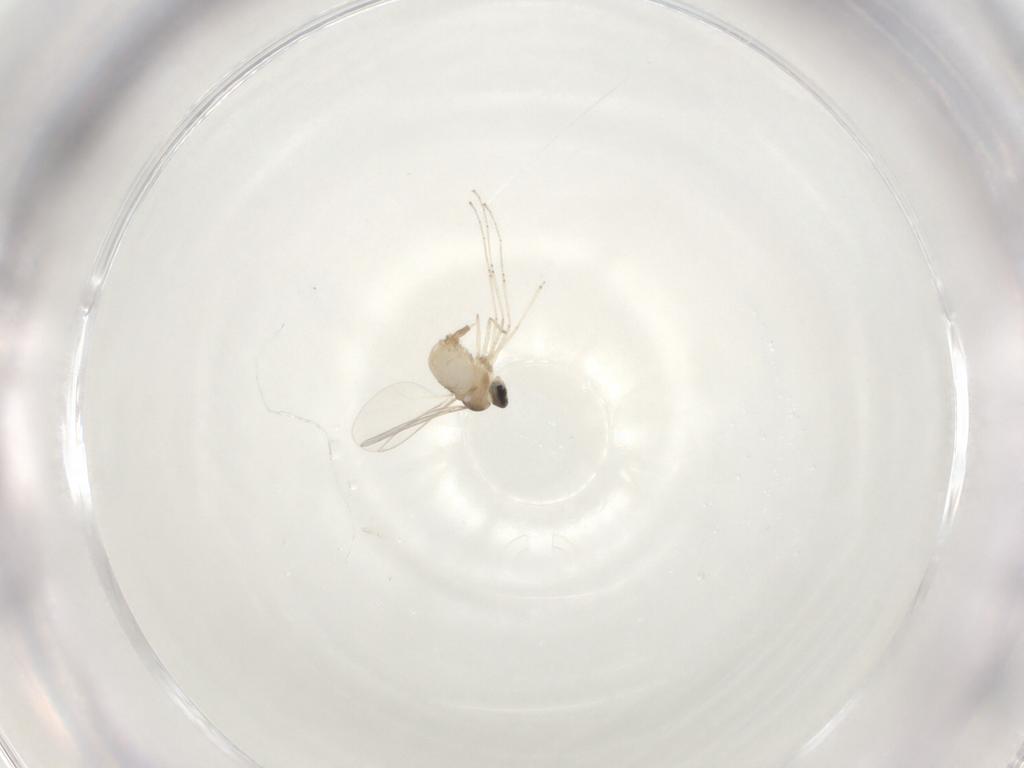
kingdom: Animalia
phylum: Arthropoda
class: Insecta
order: Diptera
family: Cecidomyiidae
